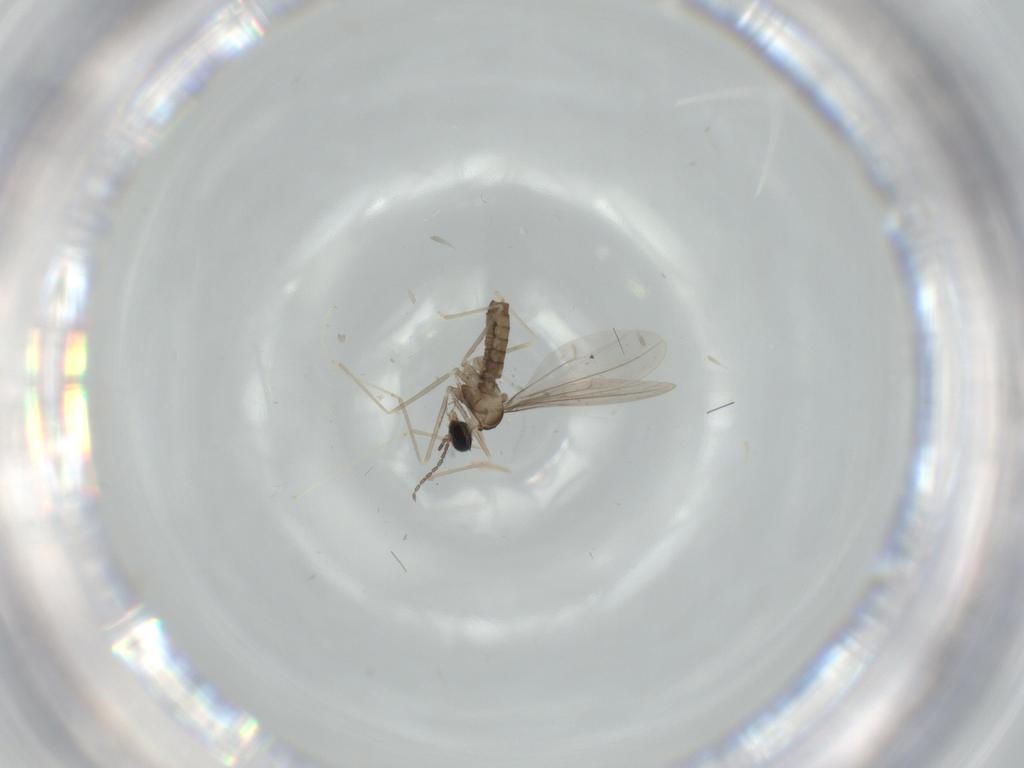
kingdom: Animalia
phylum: Arthropoda
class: Insecta
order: Diptera
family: Cecidomyiidae
